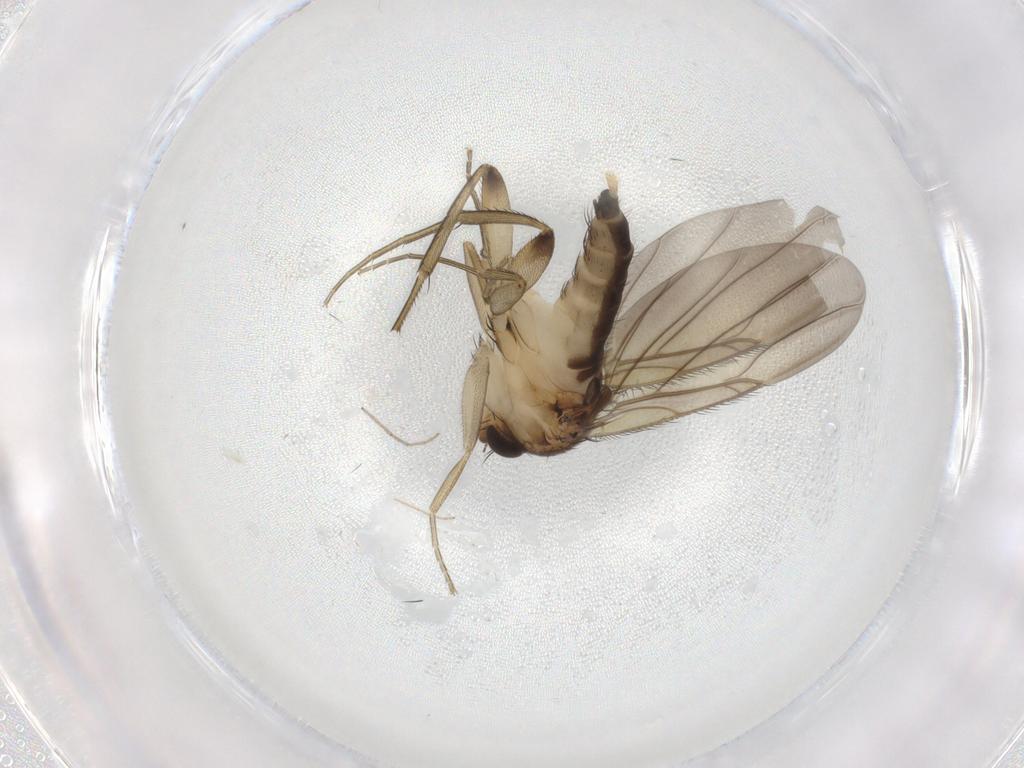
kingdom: Animalia
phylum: Arthropoda
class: Insecta
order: Diptera
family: Phoridae
